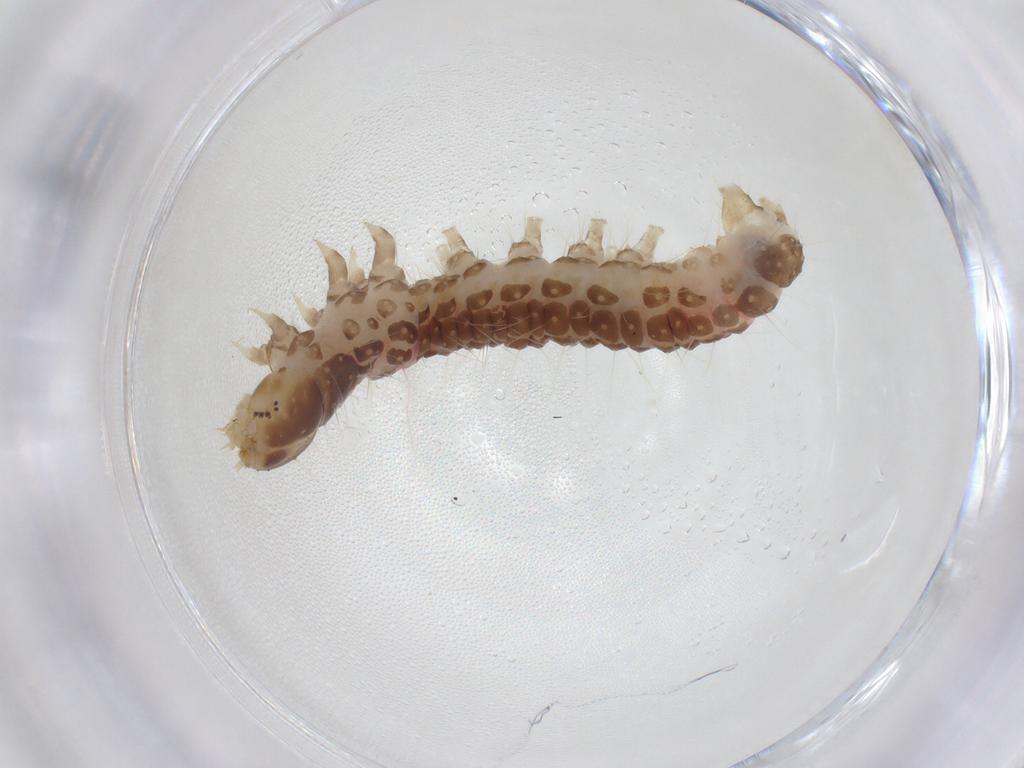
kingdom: Animalia
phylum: Arthropoda
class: Insecta
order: Lepidoptera
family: Crambidae
